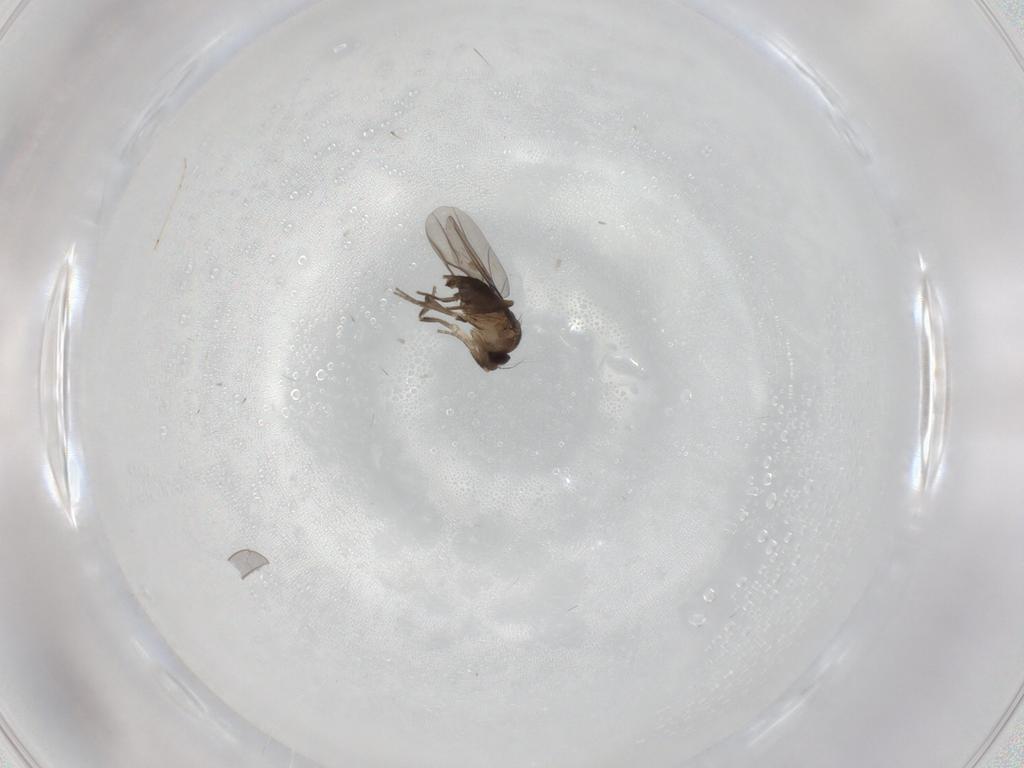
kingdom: Animalia
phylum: Arthropoda
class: Insecta
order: Diptera
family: Phoridae
